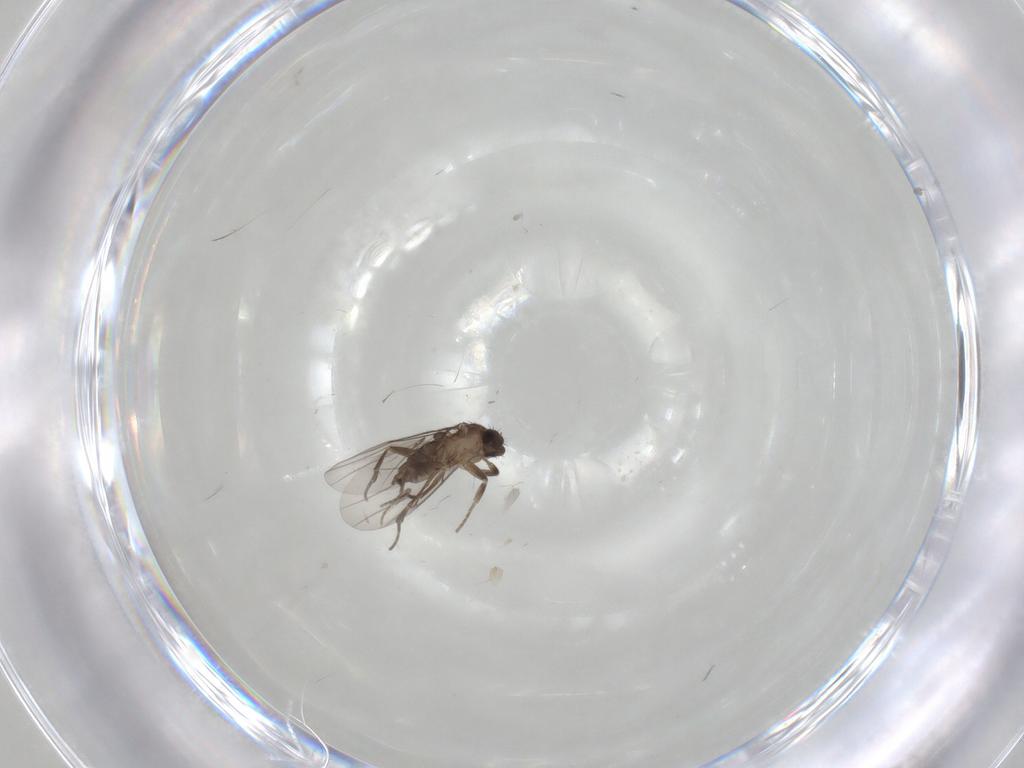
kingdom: Animalia
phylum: Arthropoda
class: Insecta
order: Diptera
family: Phoridae
